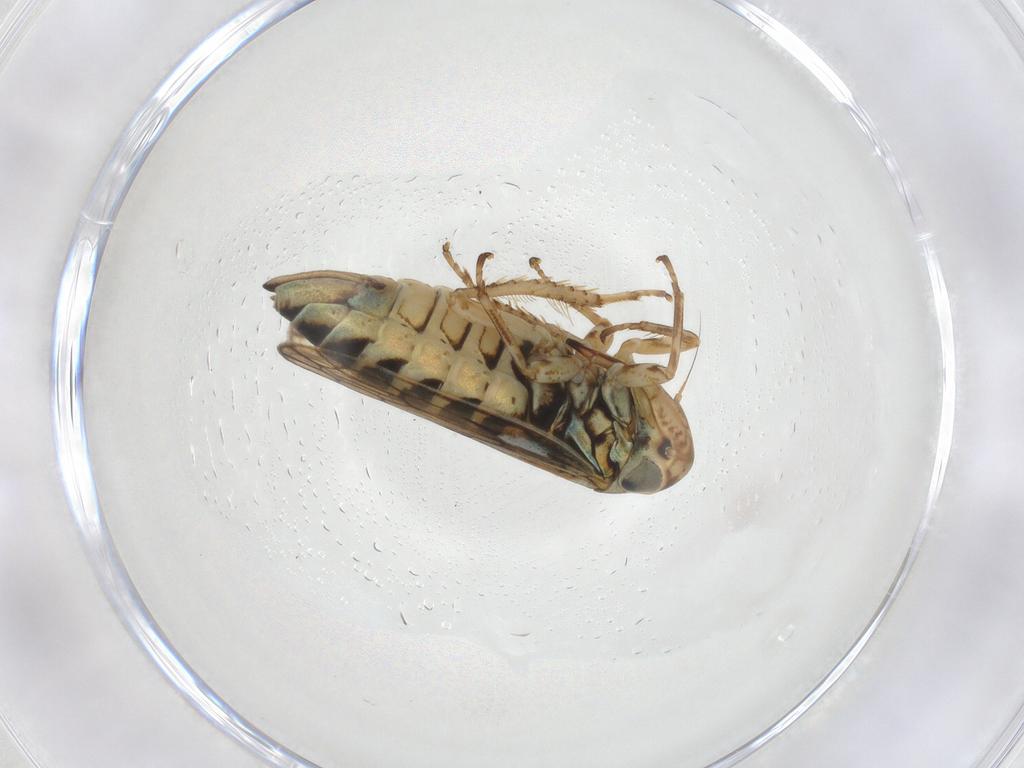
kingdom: Animalia
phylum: Arthropoda
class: Insecta
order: Hemiptera
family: Cicadellidae
